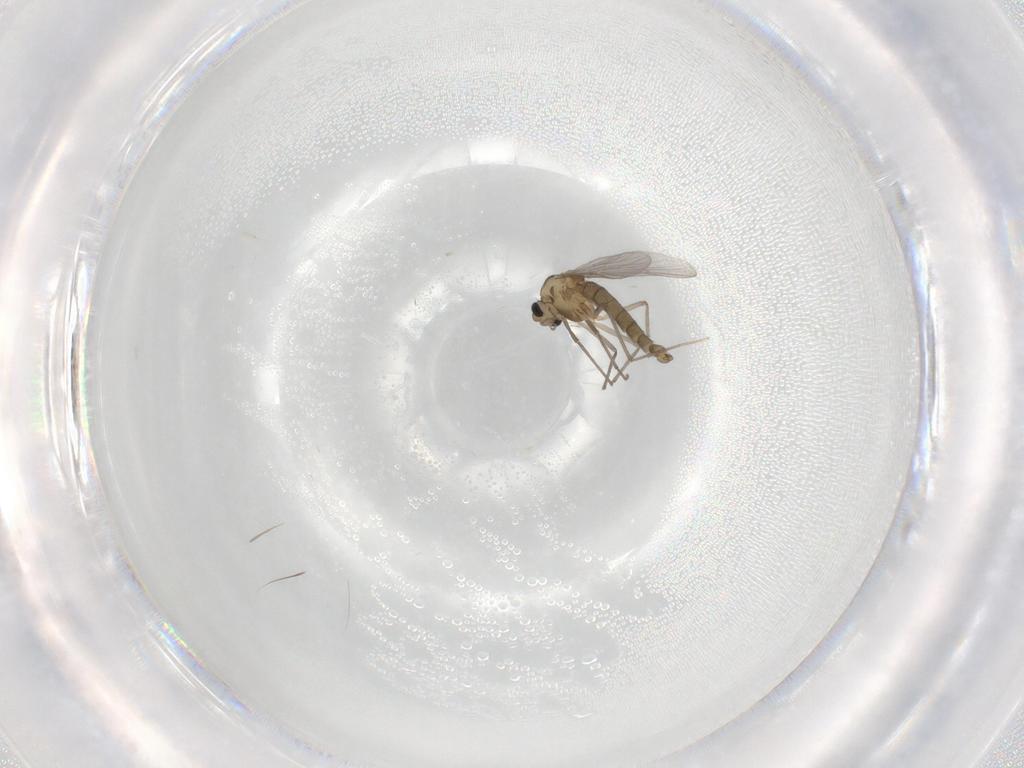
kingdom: Animalia
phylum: Arthropoda
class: Insecta
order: Diptera
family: Chironomidae
